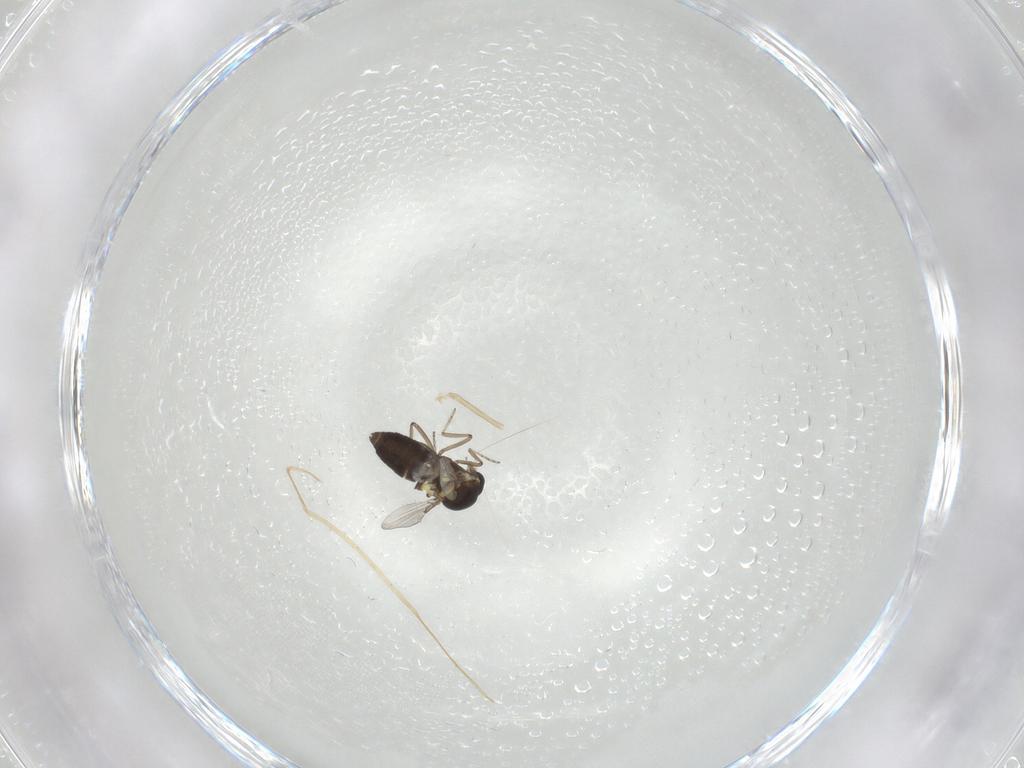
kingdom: Animalia
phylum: Arthropoda
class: Insecta
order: Diptera
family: Ceratopogonidae
